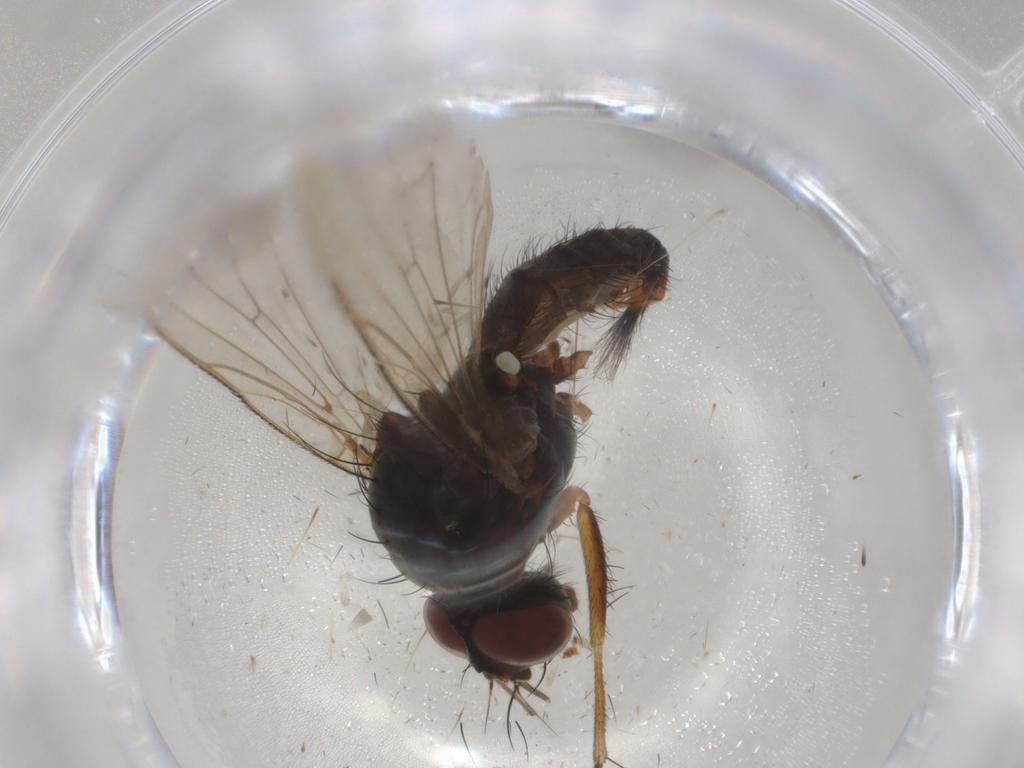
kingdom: Animalia
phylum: Arthropoda
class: Insecta
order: Diptera
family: Anthomyiidae
